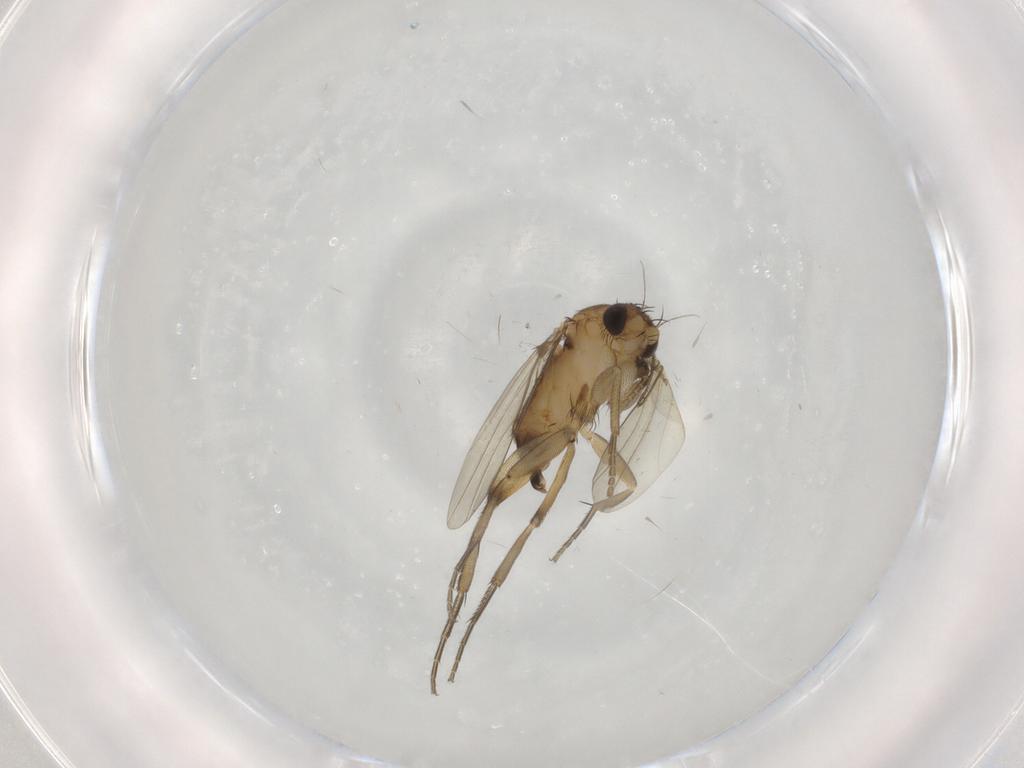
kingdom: Animalia
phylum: Arthropoda
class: Insecta
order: Diptera
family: Phoridae
